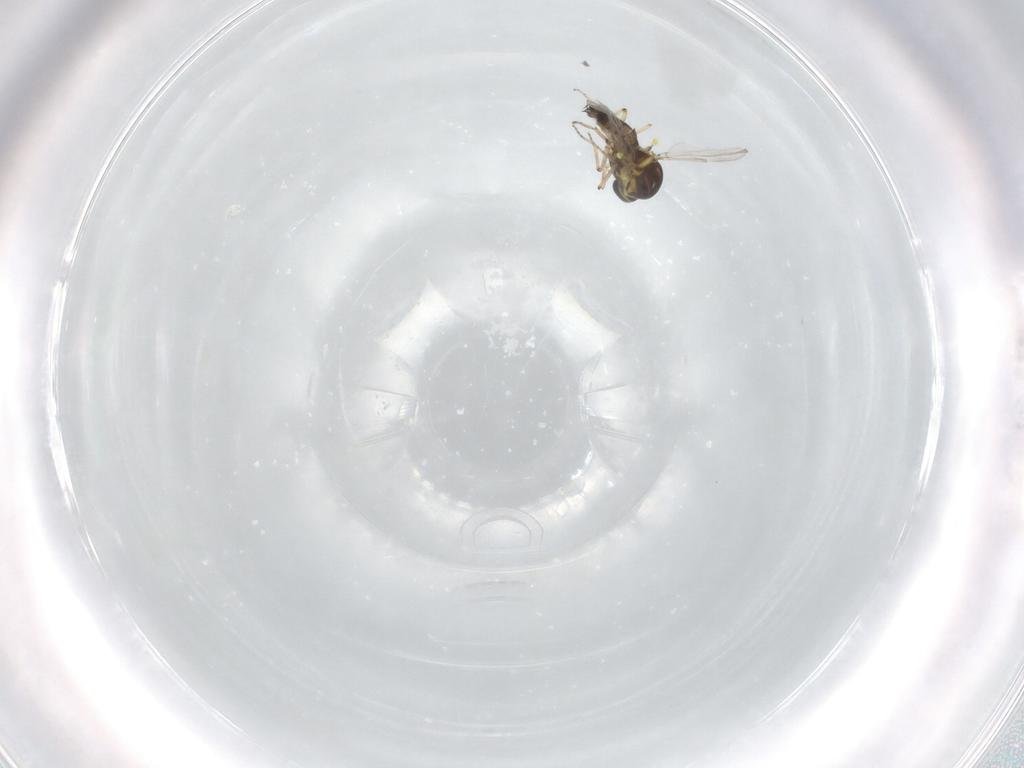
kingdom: Animalia
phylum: Arthropoda
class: Insecta
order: Diptera
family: Ceratopogonidae
